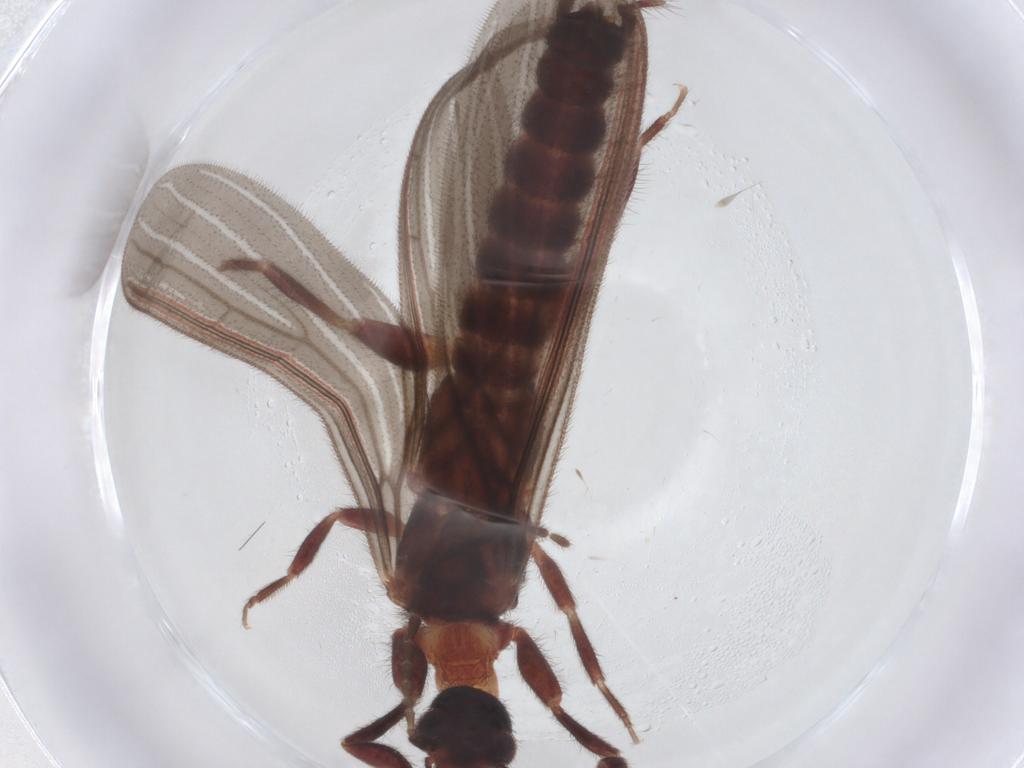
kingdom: Animalia
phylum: Arthropoda
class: Insecta
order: Embioptera
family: Anisembiidae
